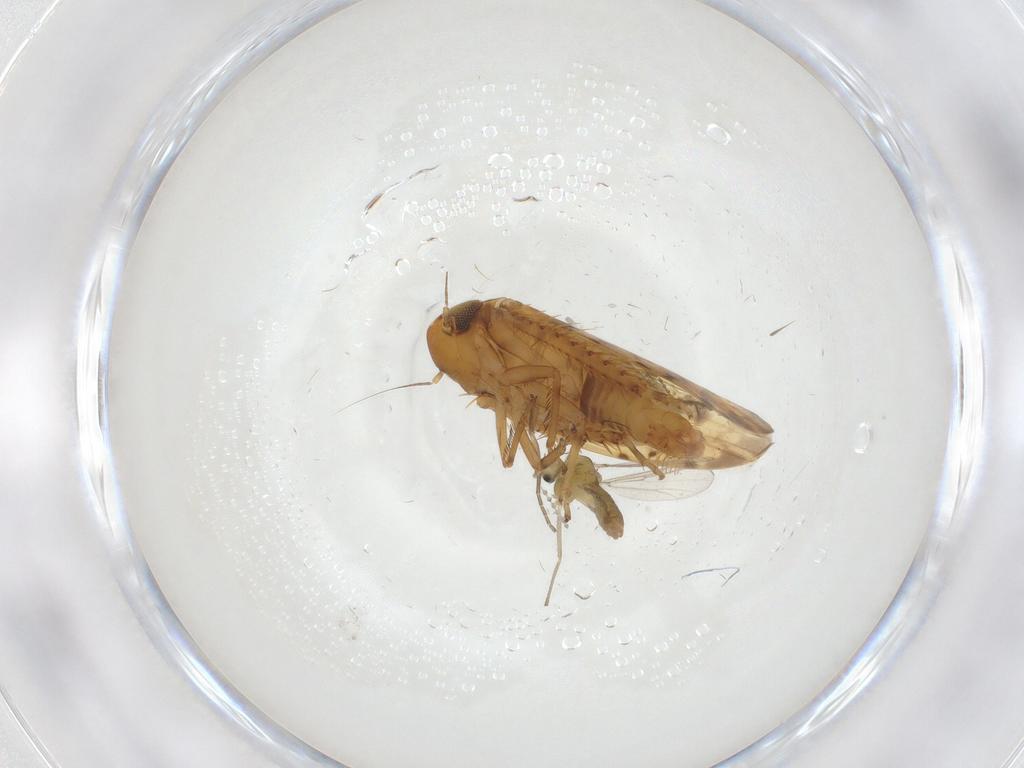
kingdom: Animalia
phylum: Arthropoda
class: Insecta
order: Hemiptera
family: Cicadellidae
